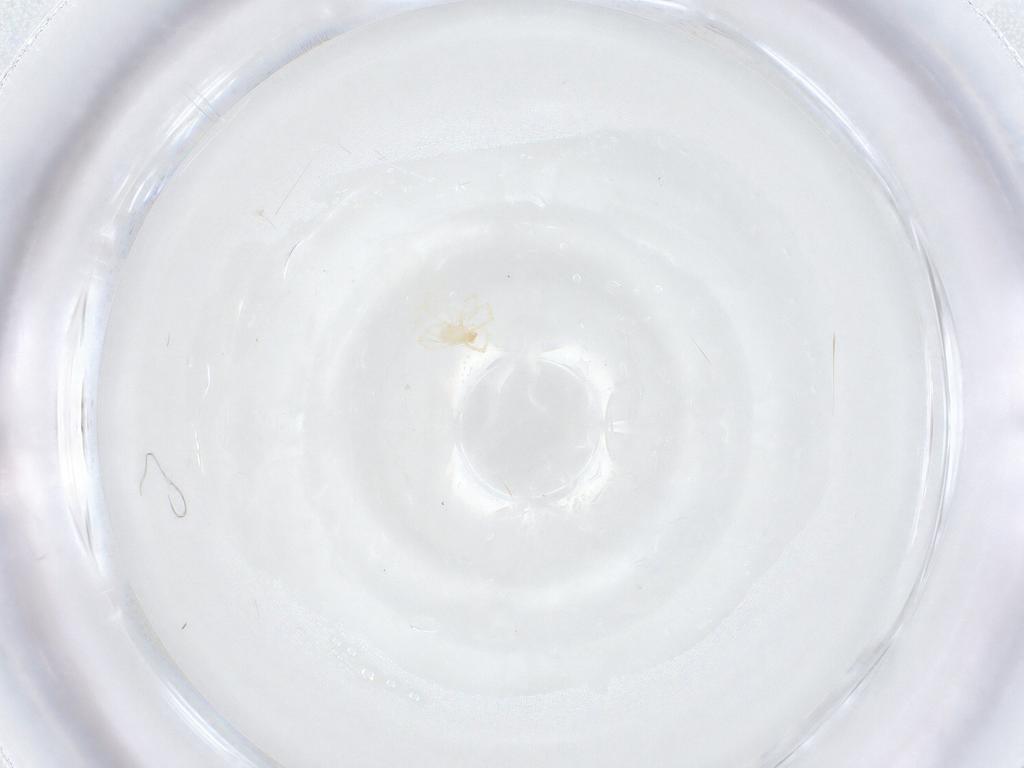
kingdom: Animalia
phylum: Arthropoda
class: Arachnida
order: Trombidiformes
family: Erythraeidae
